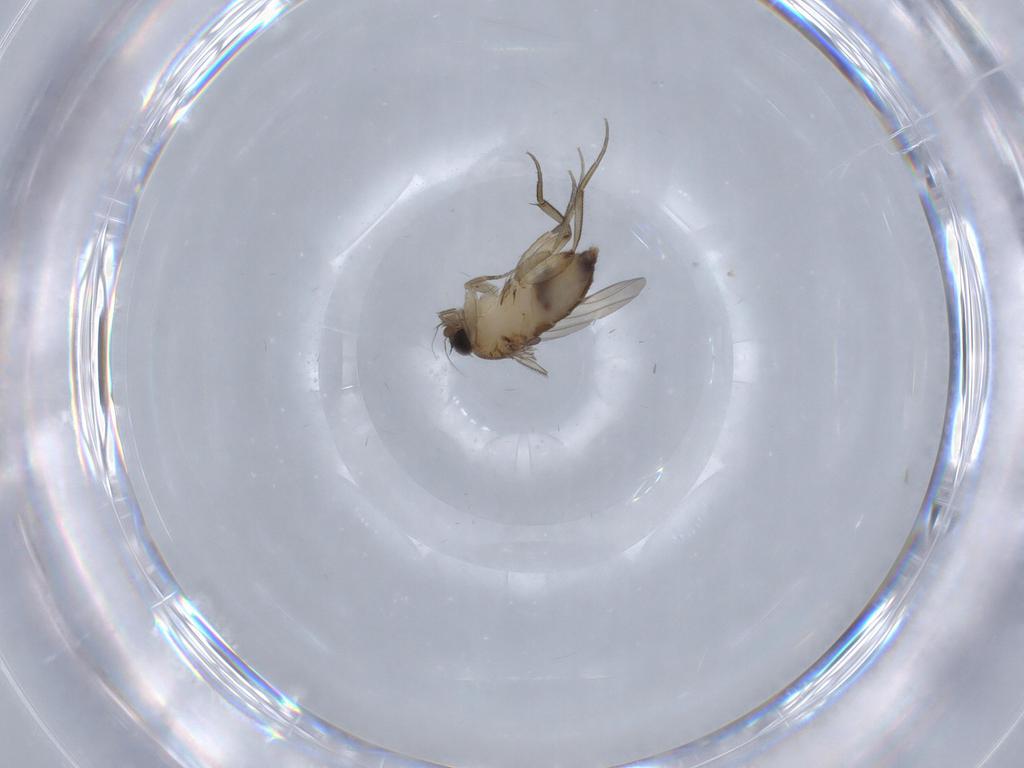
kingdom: Animalia
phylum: Arthropoda
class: Insecta
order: Diptera
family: Phoridae
